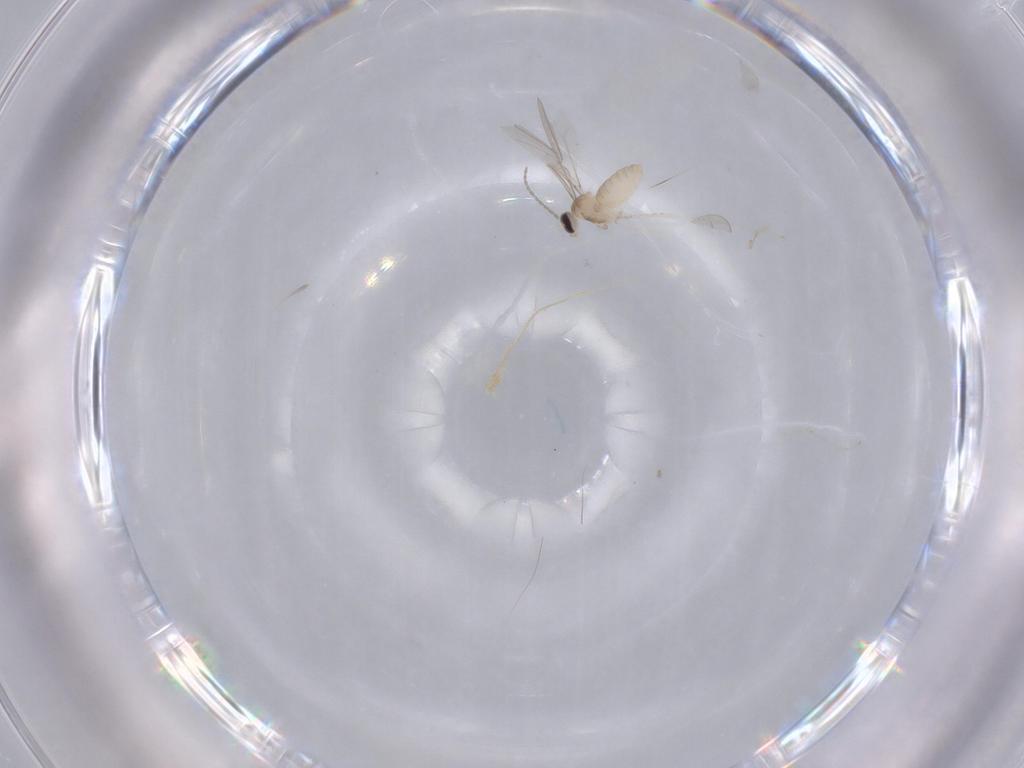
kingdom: Animalia
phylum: Arthropoda
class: Insecta
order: Diptera
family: Cecidomyiidae
